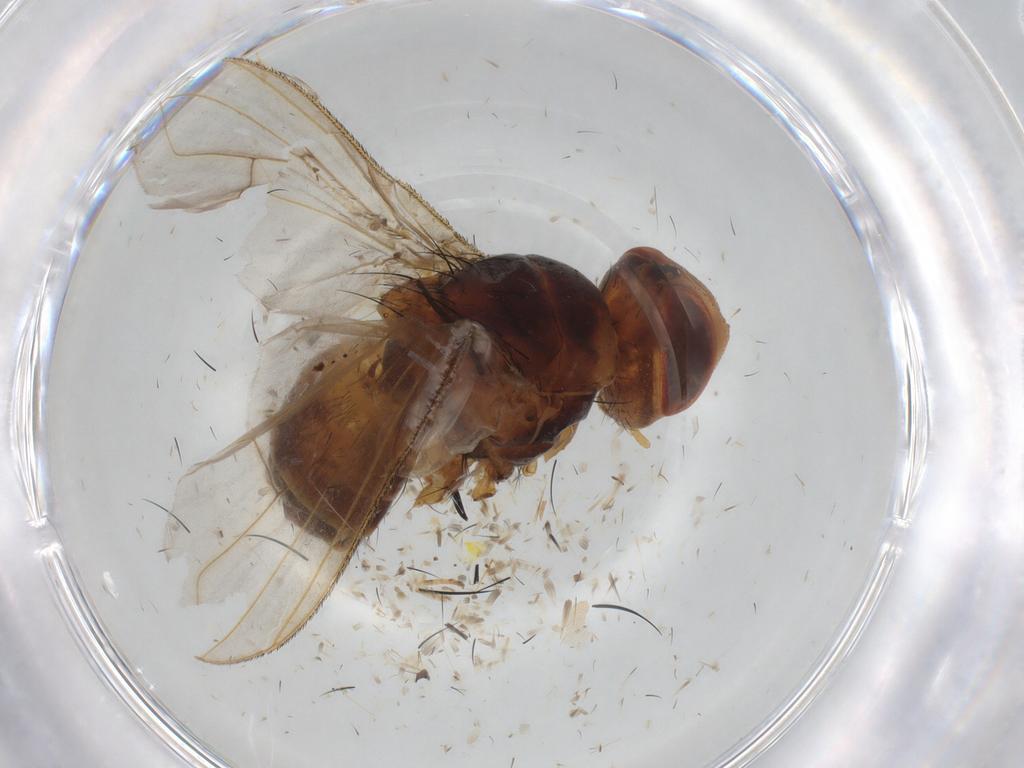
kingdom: Animalia
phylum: Arthropoda
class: Insecta
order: Diptera
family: Tachinidae
